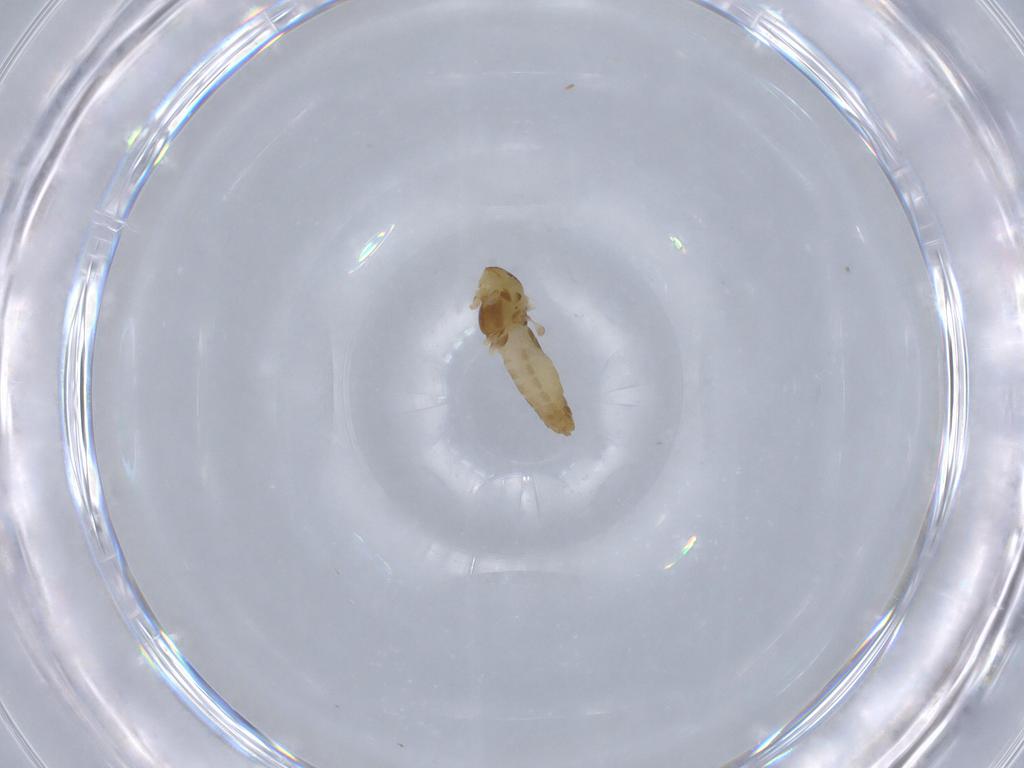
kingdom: Animalia
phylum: Arthropoda
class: Insecta
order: Diptera
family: Chironomidae
